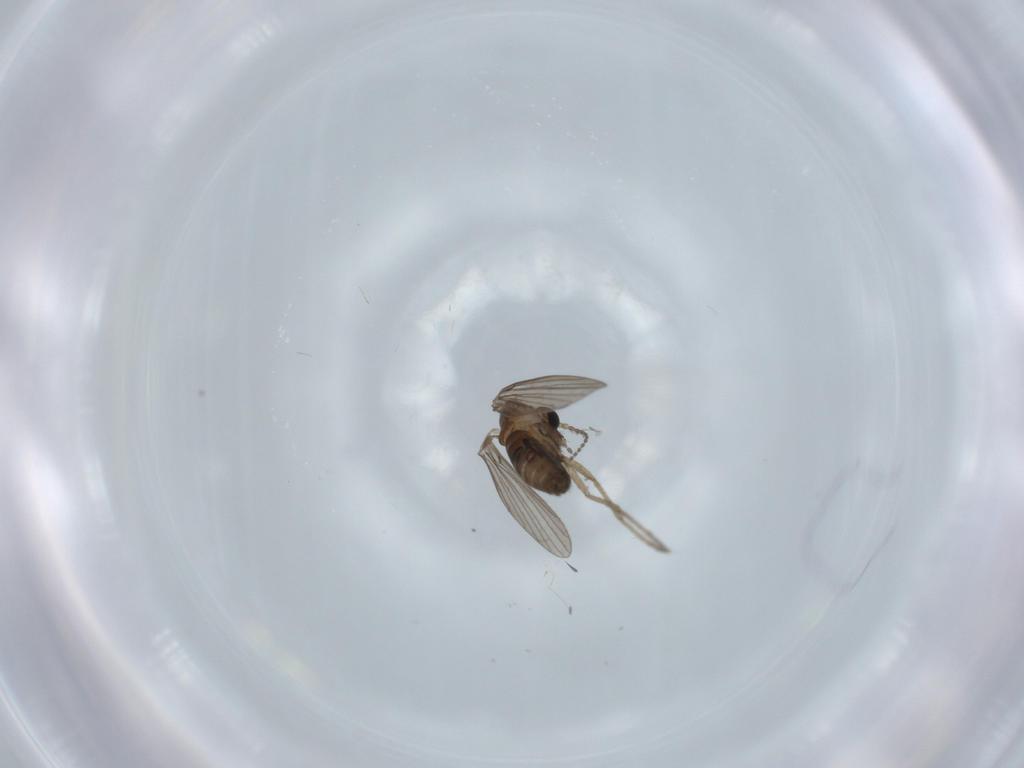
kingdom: Animalia
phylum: Arthropoda
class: Insecta
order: Diptera
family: Psychodidae
